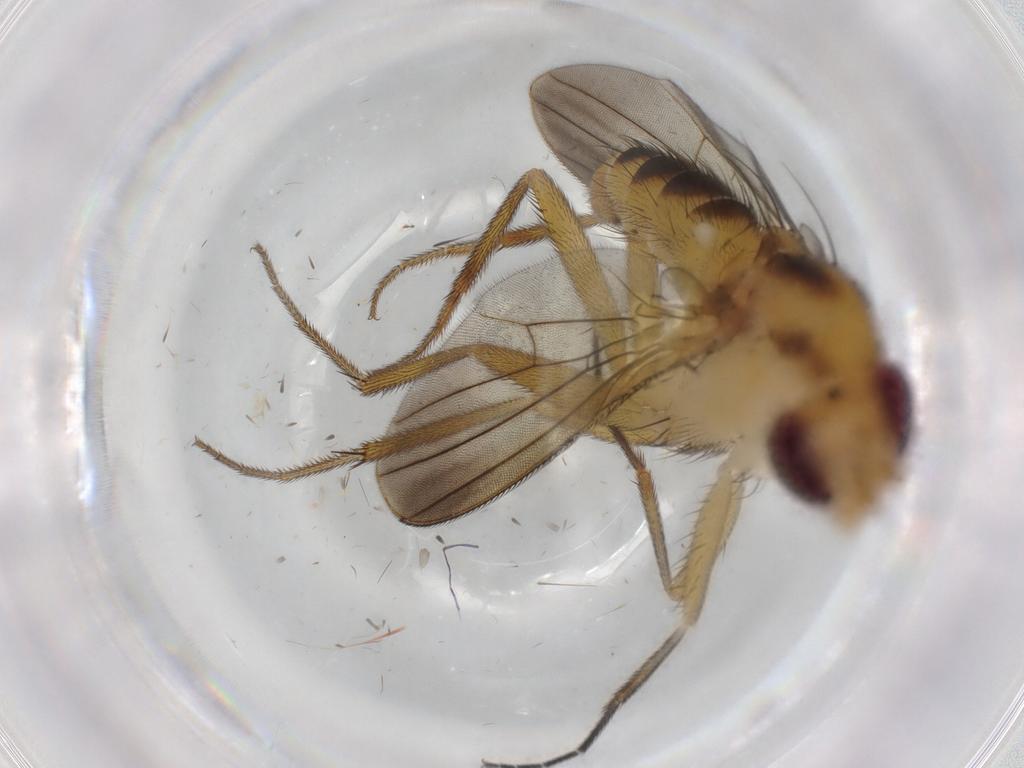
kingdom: Animalia
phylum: Arthropoda
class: Insecta
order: Diptera
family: Clusiidae
